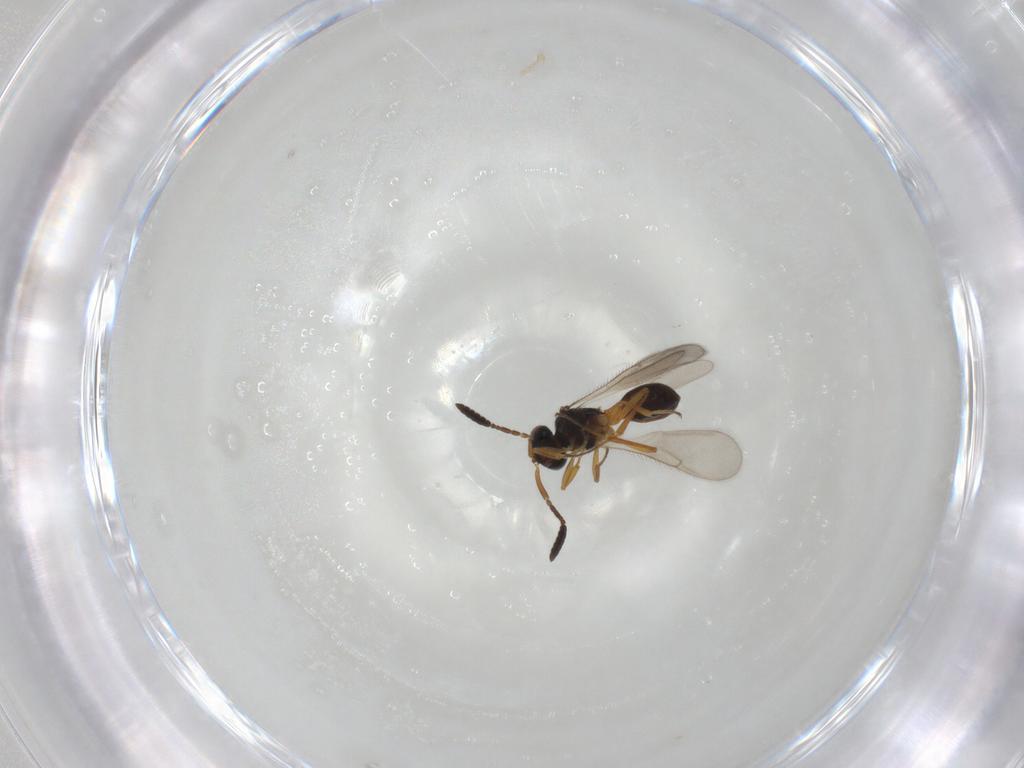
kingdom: Animalia
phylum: Arthropoda
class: Insecta
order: Hymenoptera
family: Scelionidae
